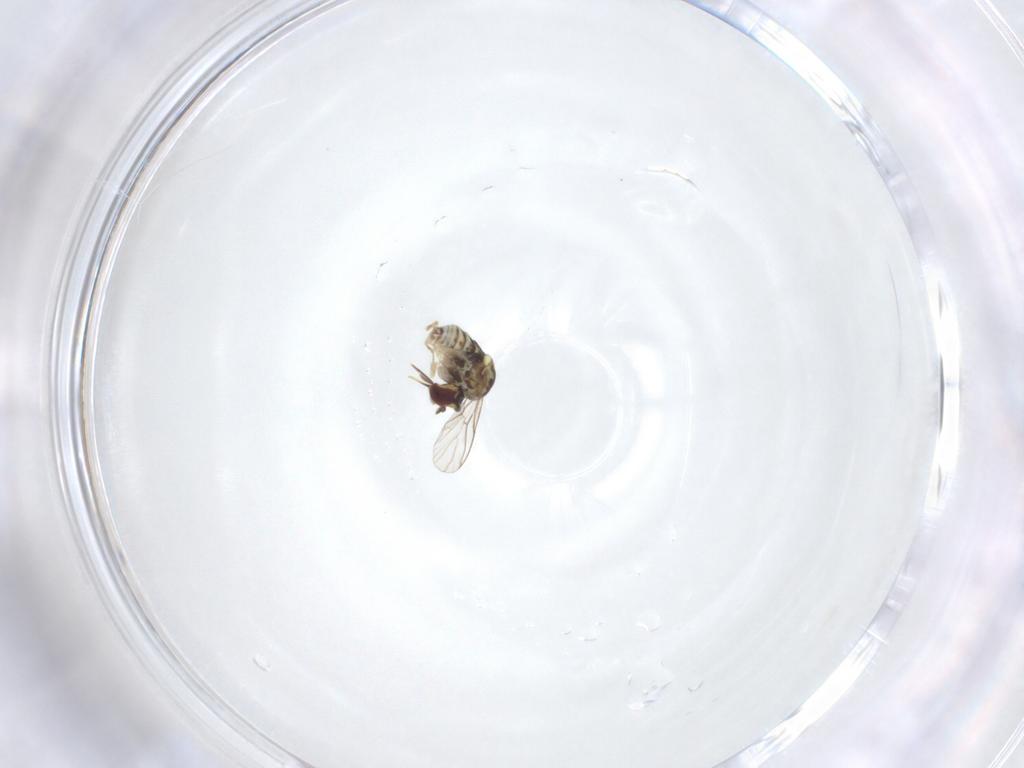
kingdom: Animalia
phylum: Arthropoda
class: Insecta
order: Diptera
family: Bombyliidae
